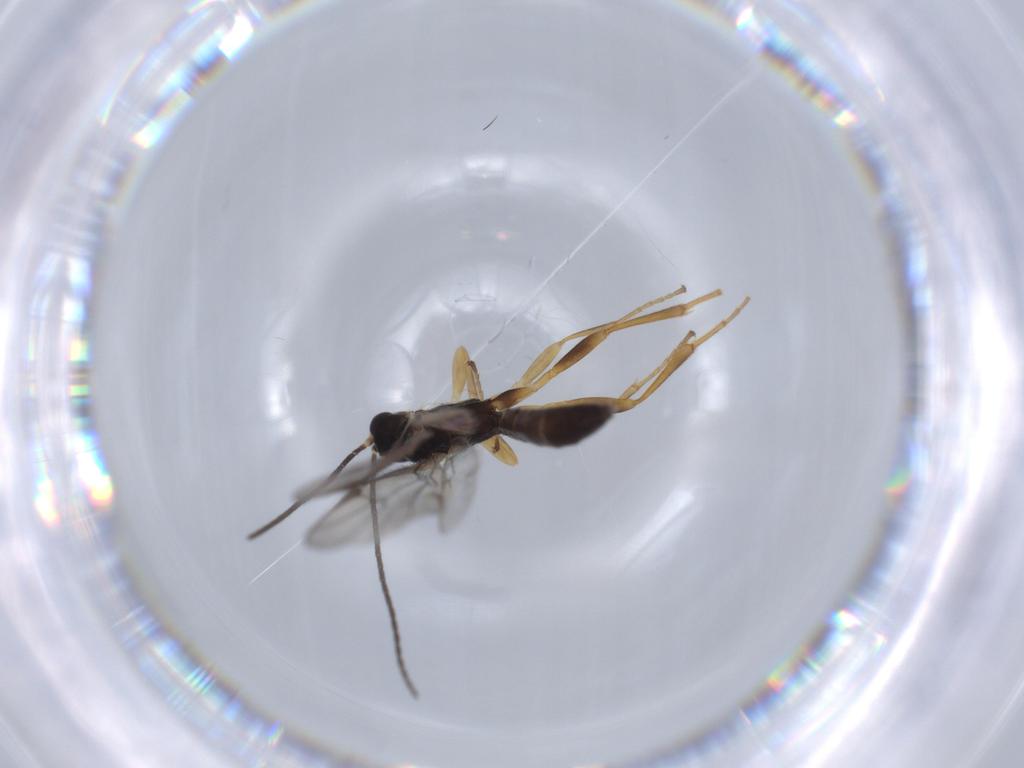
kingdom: Animalia
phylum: Arthropoda
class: Insecta
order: Hymenoptera
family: Ichneumonidae
